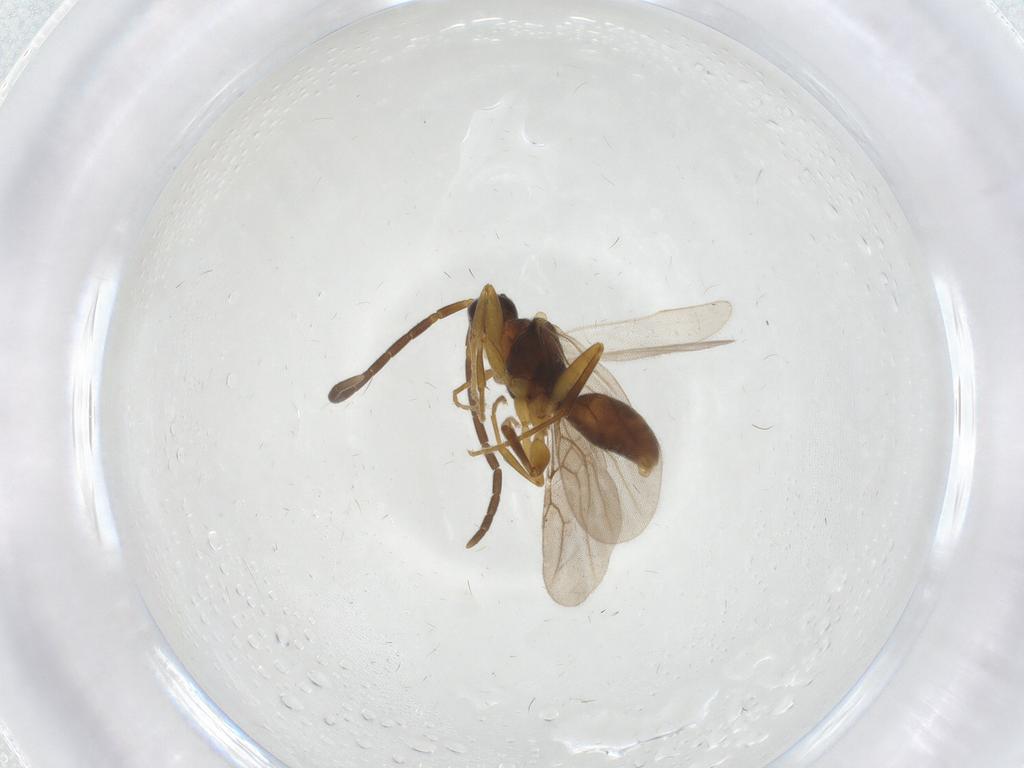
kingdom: Animalia
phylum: Arthropoda
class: Insecta
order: Hymenoptera
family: Embolemidae
